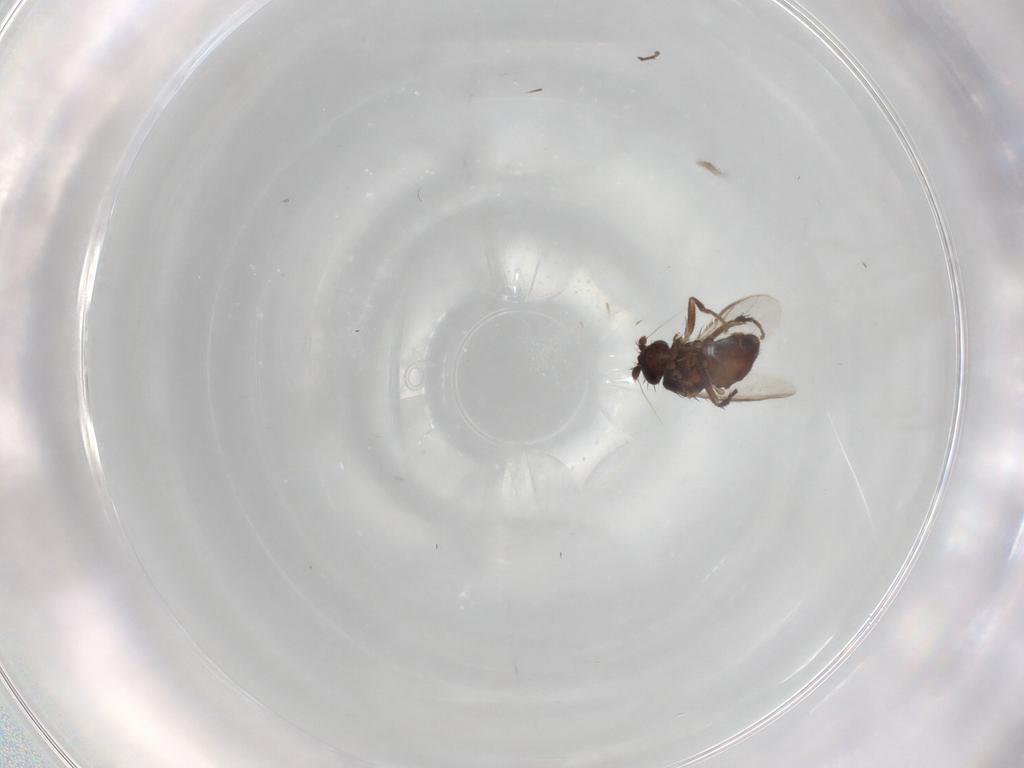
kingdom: Animalia
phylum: Arthropoda
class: Insecta
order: Diptera
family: Sphaeroceridae
